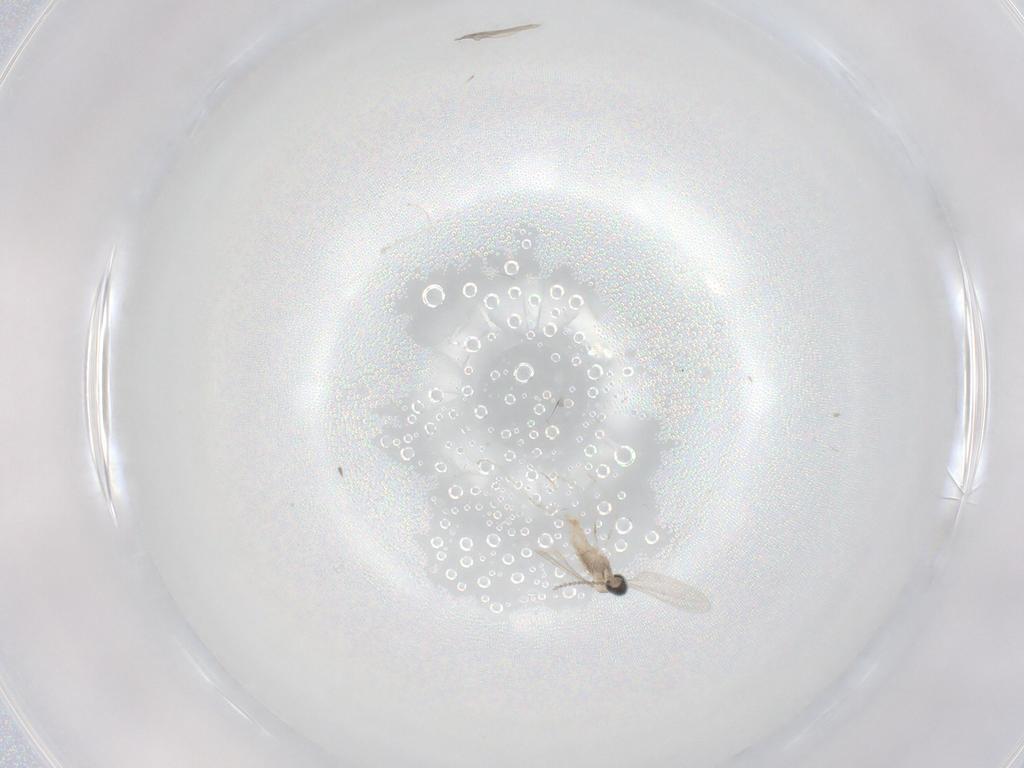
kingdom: Animalia
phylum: Arthropoda
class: Insecta
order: Diptera
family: Cecidomyiidae
